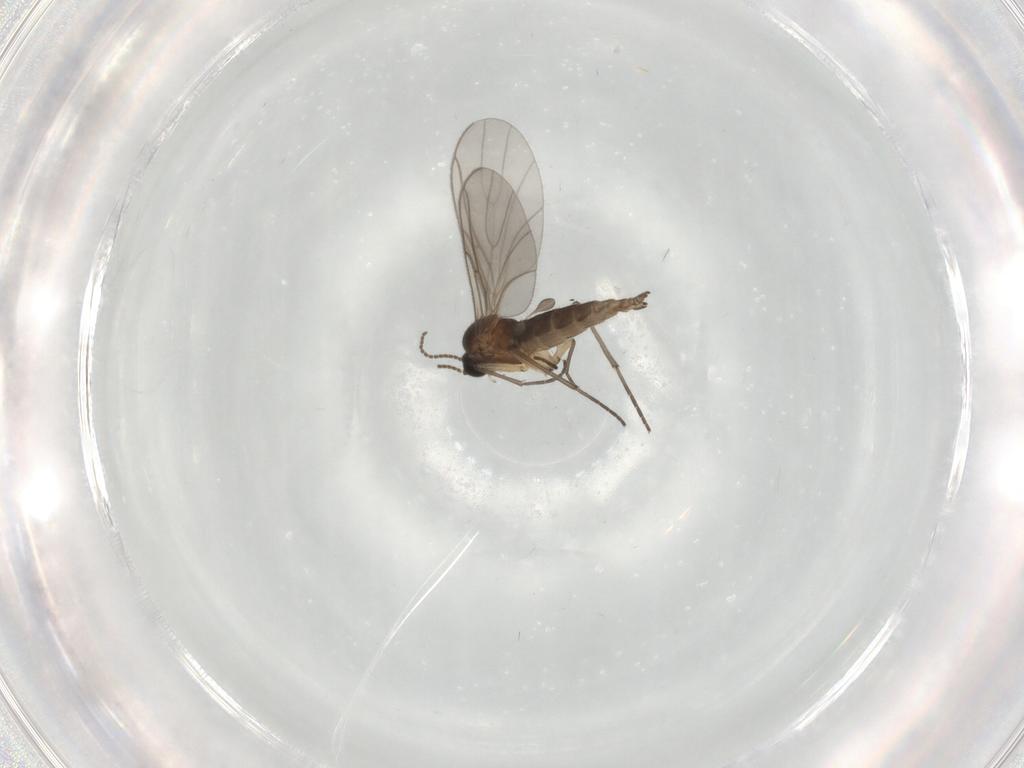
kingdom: Animalia
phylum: Arthropoda
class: Insecta
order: Diptera
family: Sciaridae
